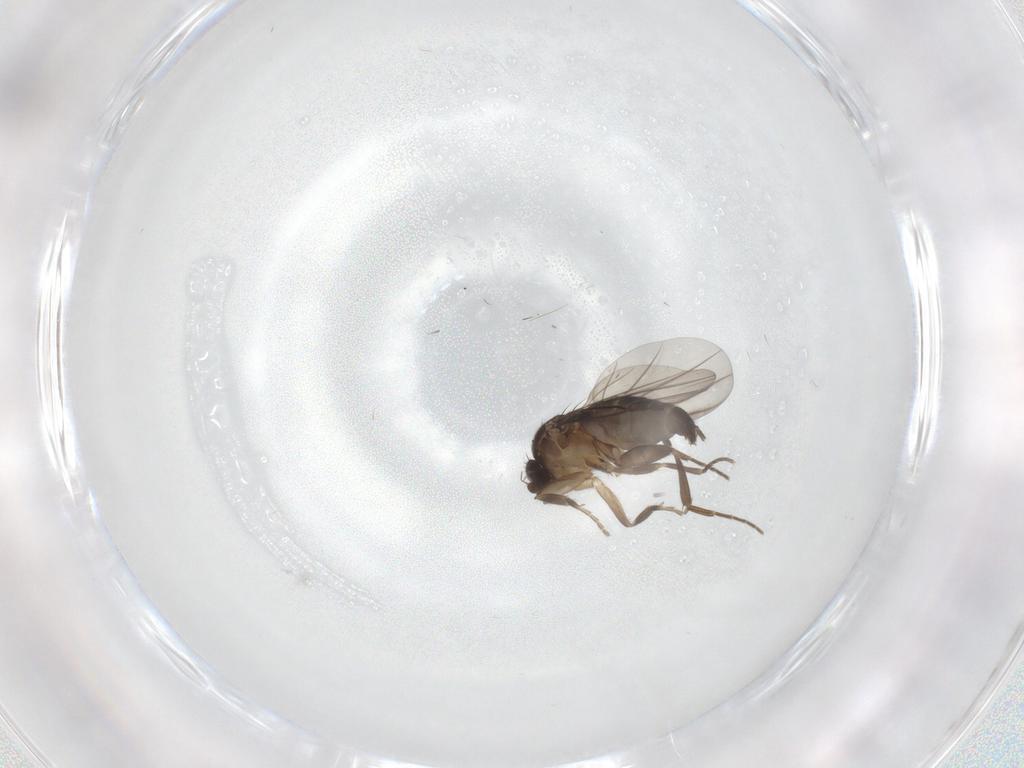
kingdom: Animalia
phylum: Arthropoda
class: Insecta
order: Diptera
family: Phoridae
